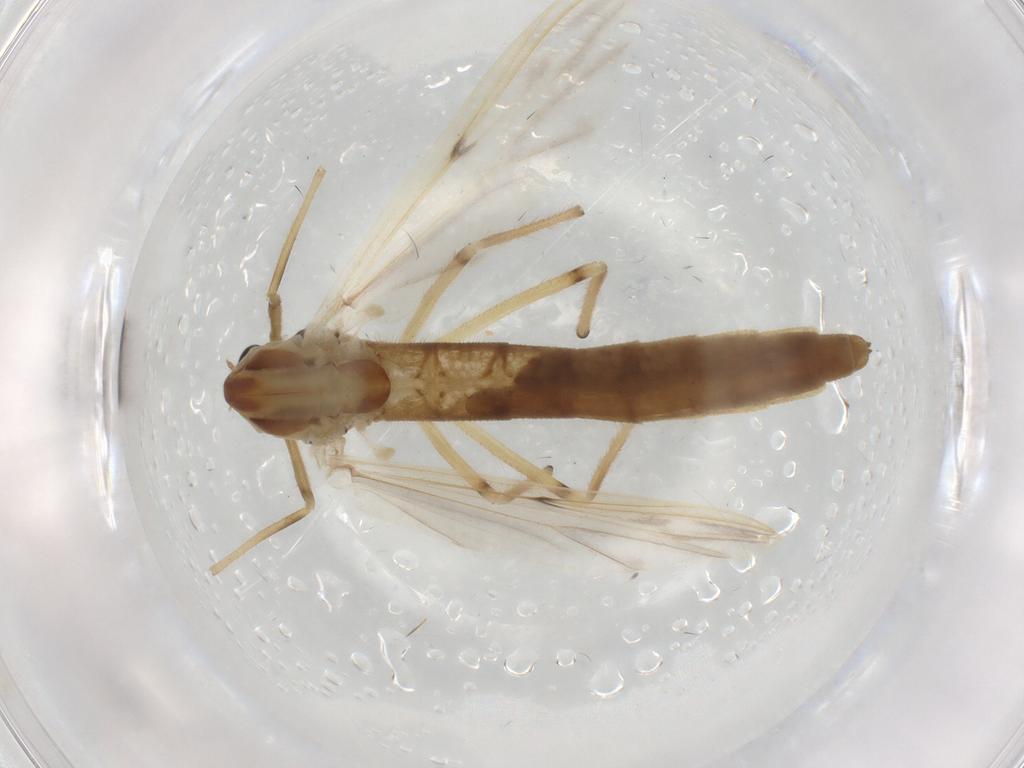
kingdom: Animalia
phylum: Arthropoda
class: Insecta
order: Diptera
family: Chironomidae
